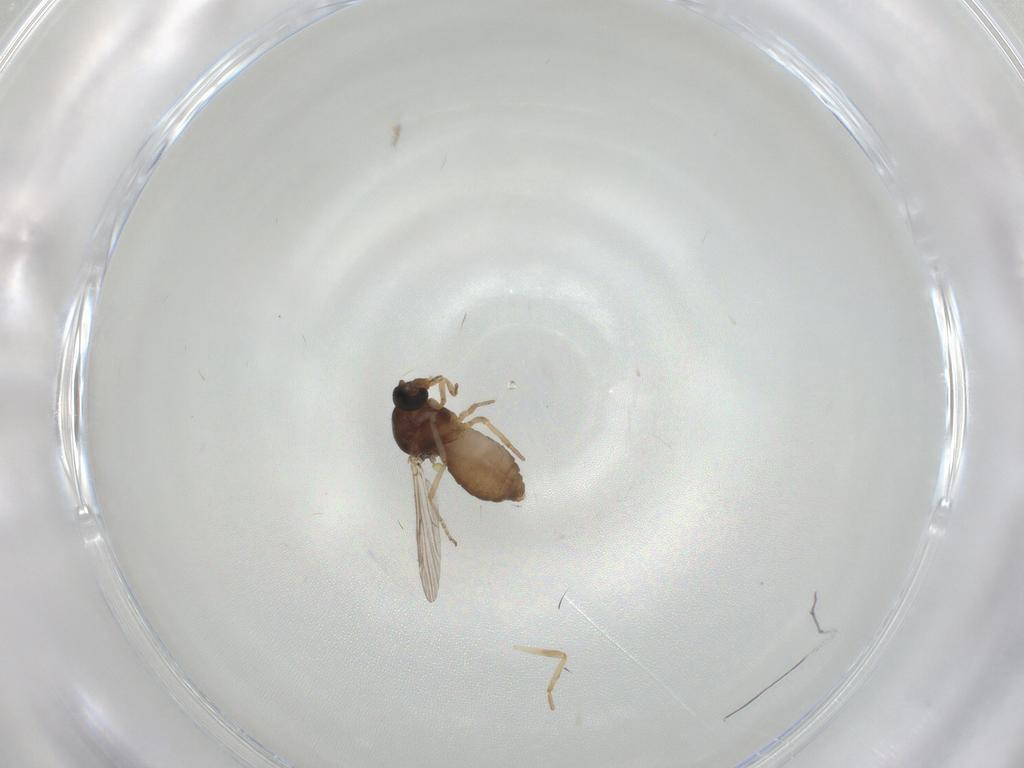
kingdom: Animalia
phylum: Arthropoda
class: Insecta
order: Diptera
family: Ceratopogonidae
